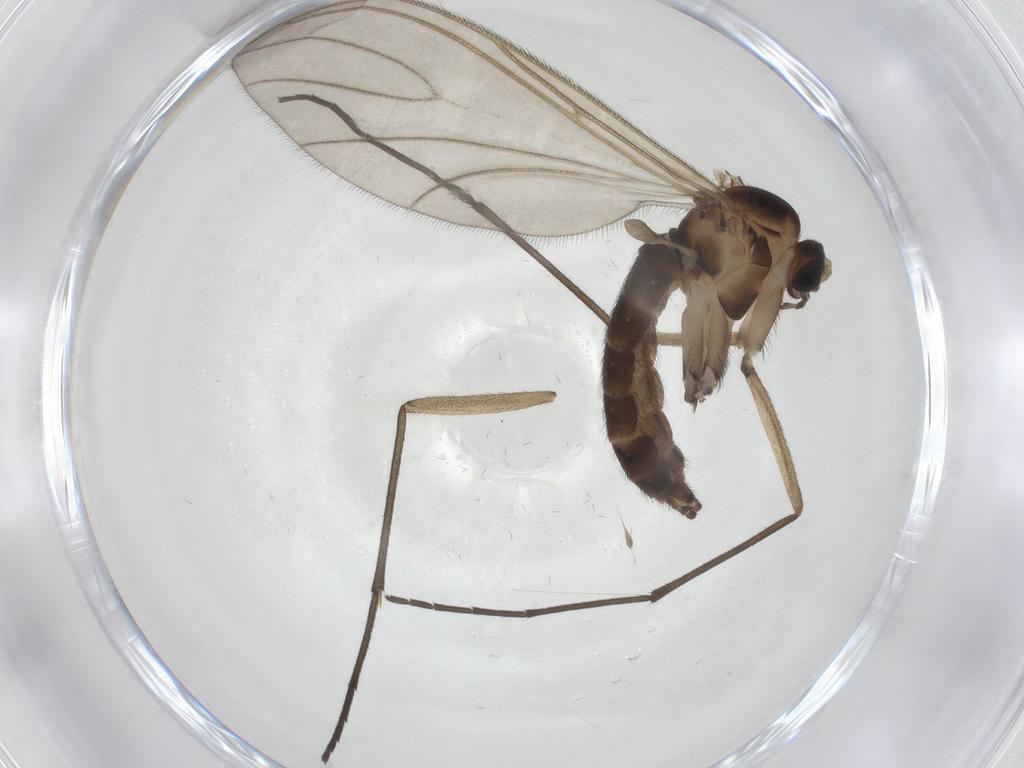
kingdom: Animalia
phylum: Arthropoda
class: Insecta
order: Diptera
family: Sciaridae
